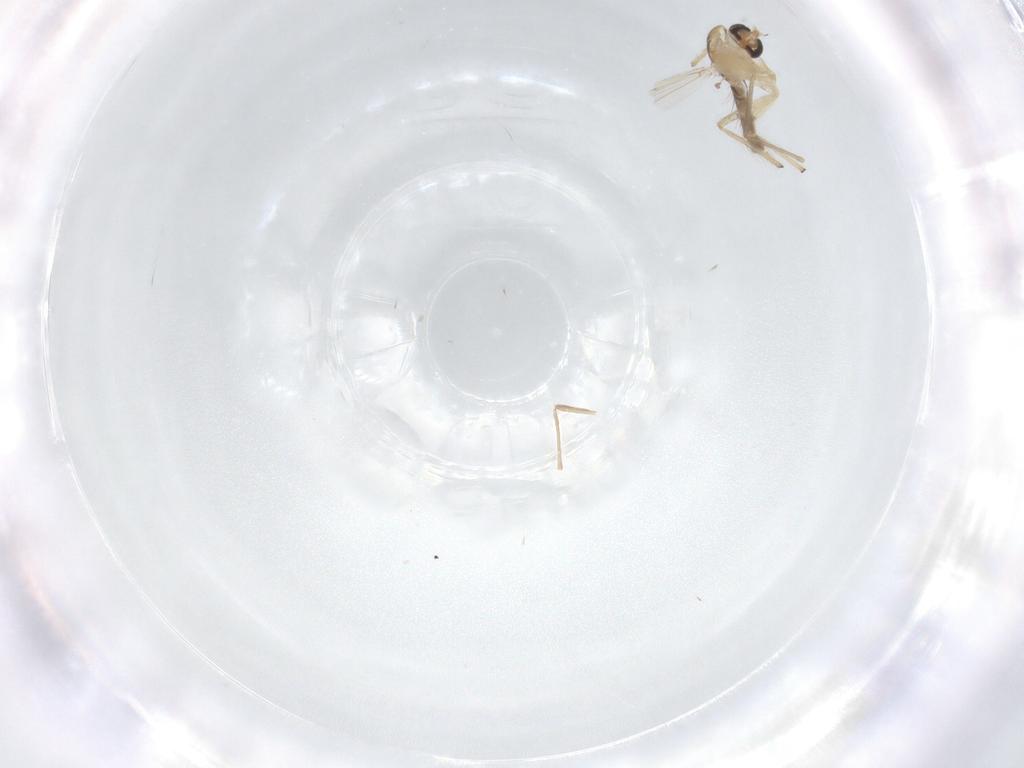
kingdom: Animalia
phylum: Arthropoda
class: Insecta
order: Diptera
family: Chironomidae
